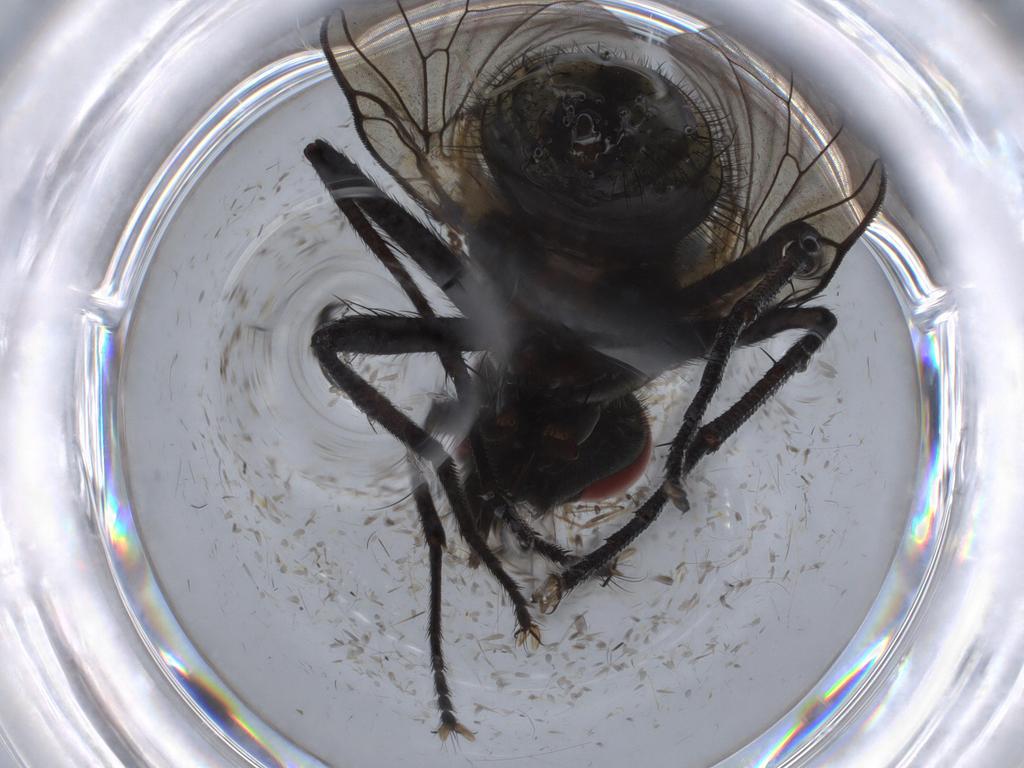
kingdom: Animalia
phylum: Arthropoda
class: Insecta
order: Diptera
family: Muscidae
